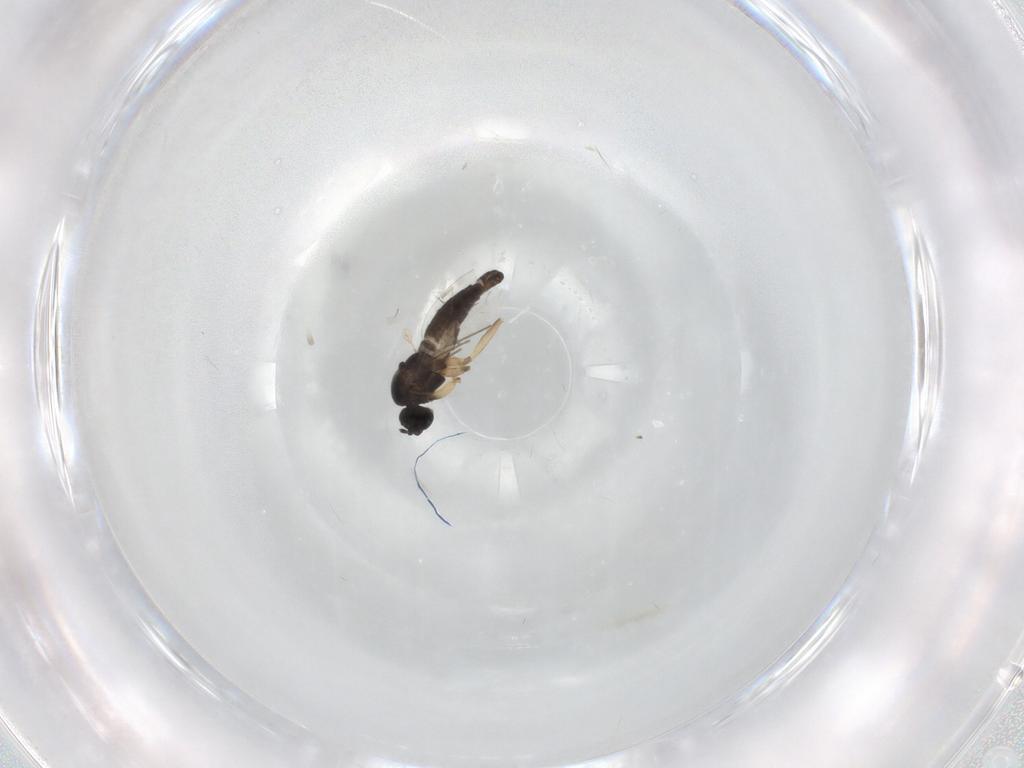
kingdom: Animalia
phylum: Arthropoda
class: Insecta
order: Diptera
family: Sciaridae
